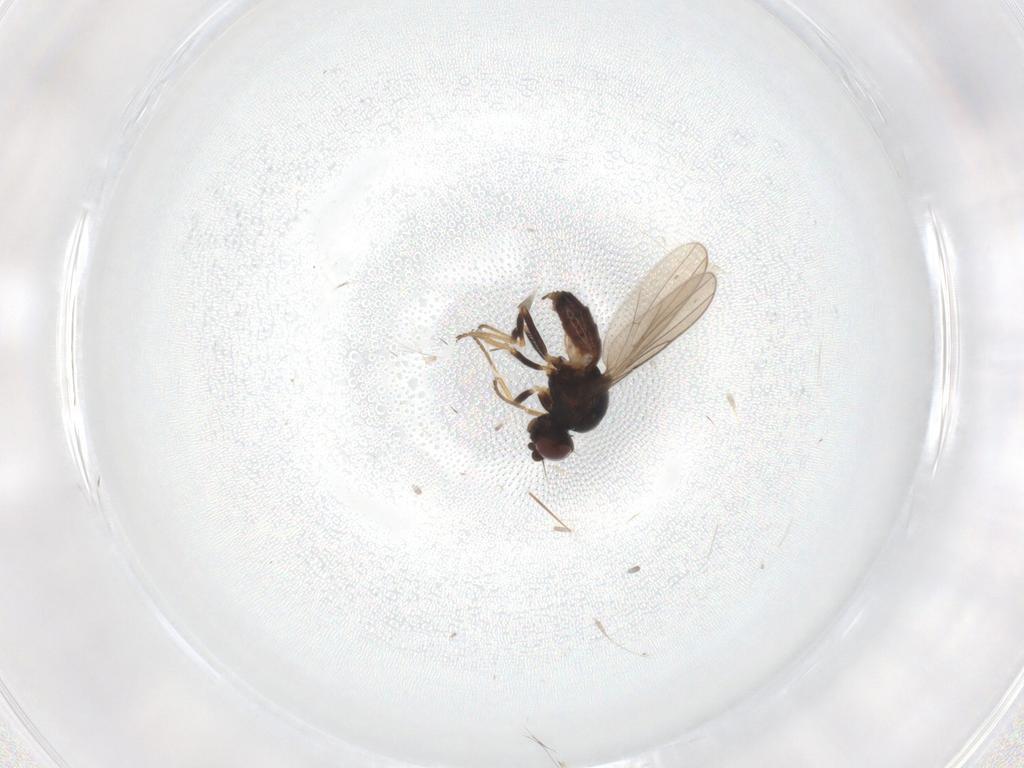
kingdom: Animalia
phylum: Arthropoda
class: Insecta
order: Diptera
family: Chloropidae
